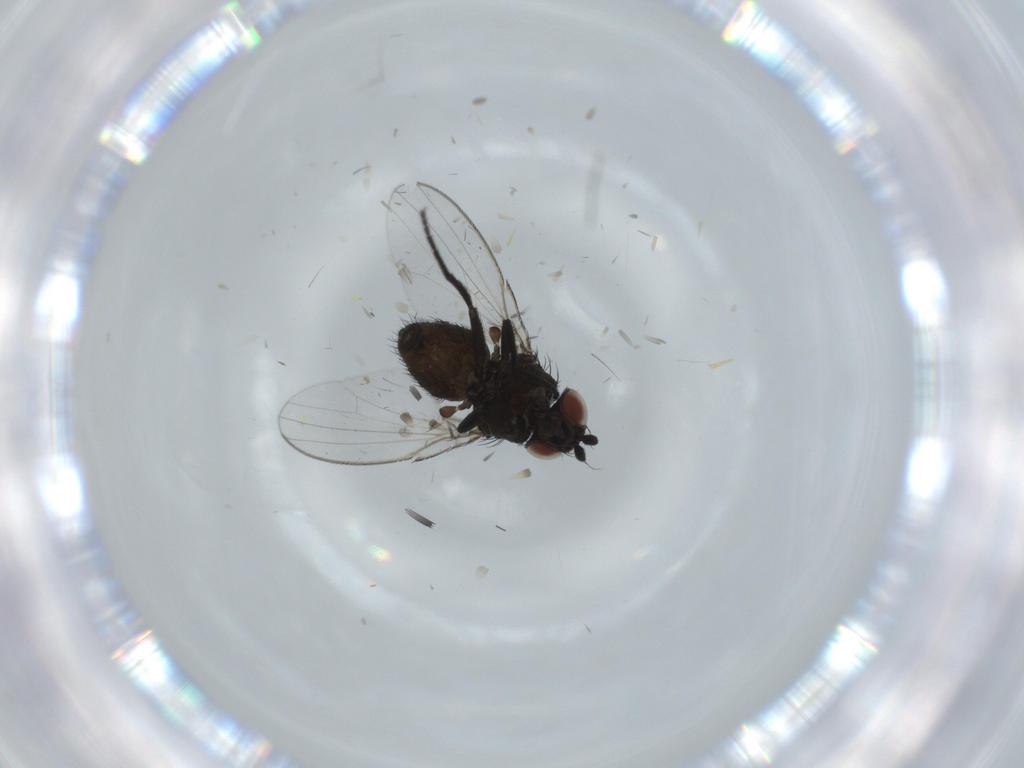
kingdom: Animalia
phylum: Arthropoda
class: Insecta
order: Diptera
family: Milichiidae
